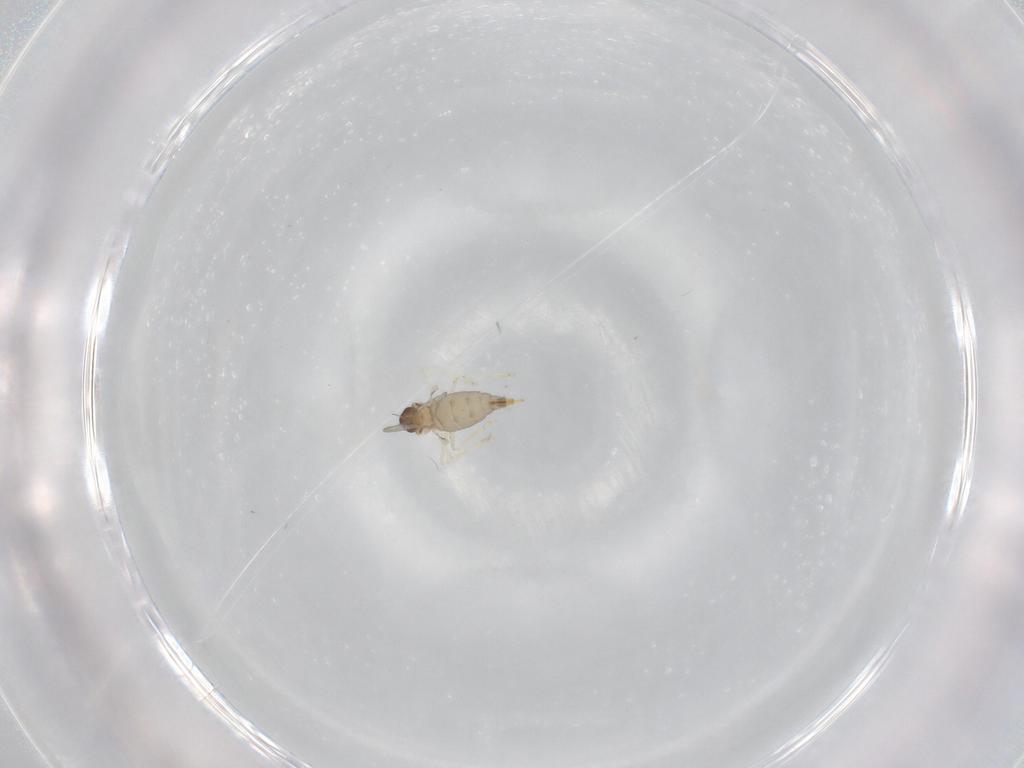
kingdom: Animalia
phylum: Arthropoda
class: Insecta
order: Diptera
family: Cecidomyiidae
